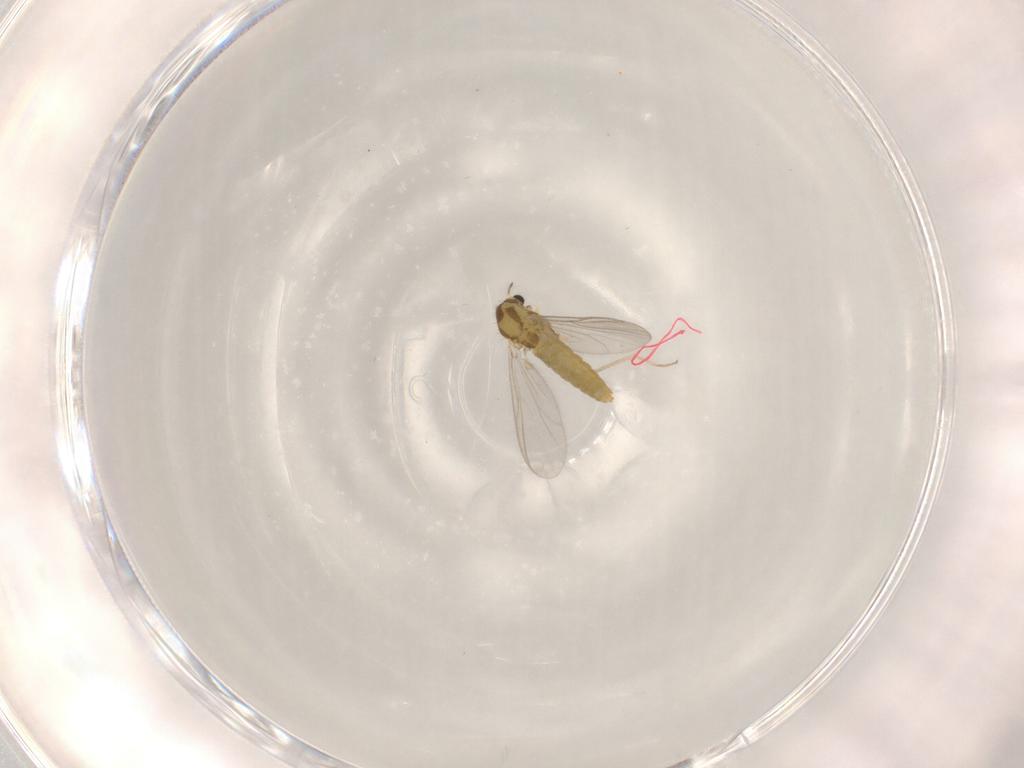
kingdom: Animalia
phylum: Arthropoda
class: Insecta
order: Diptera
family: Chironomidae
